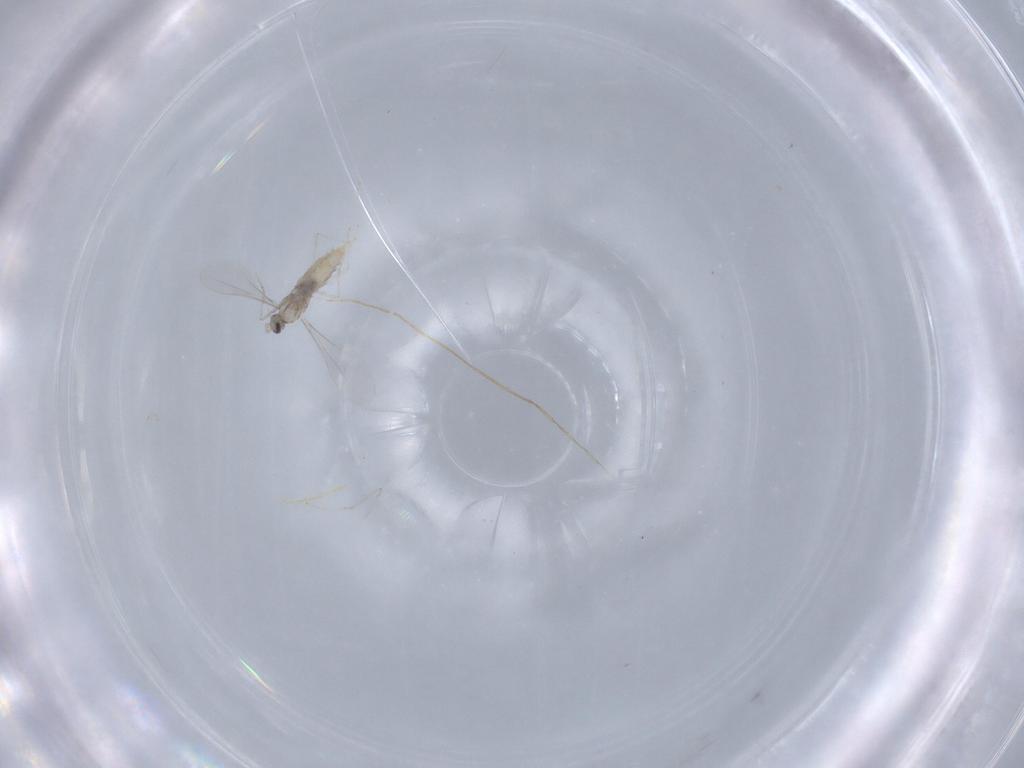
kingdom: Animalia
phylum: Arthropoda
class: Insecta
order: Diptera
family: Cecidomyiidae
